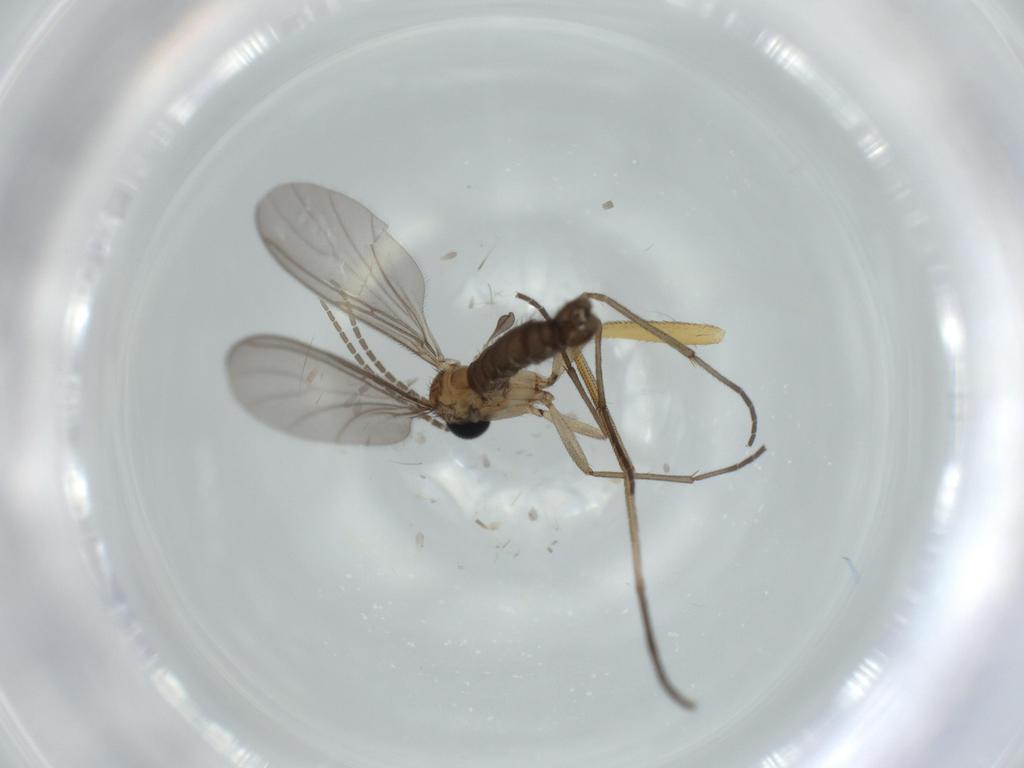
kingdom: Animalia
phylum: Arthropoda
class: Insecta
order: Diptera
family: Sciaridae
